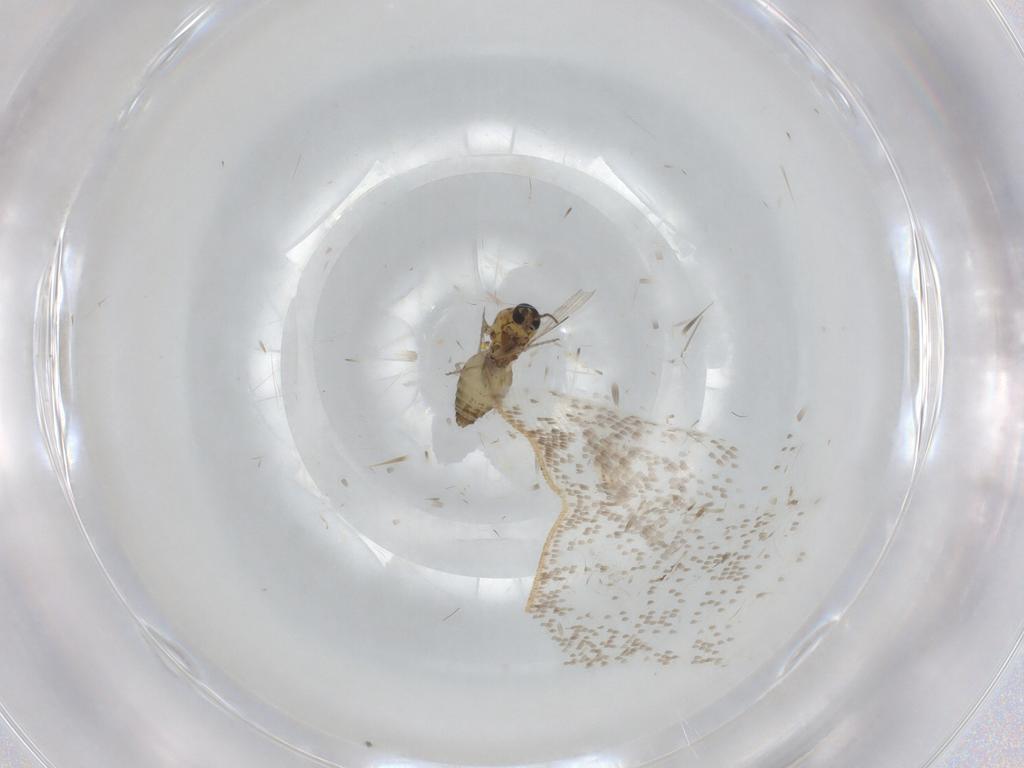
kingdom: Animalia
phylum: Arthropoda
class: Insecta
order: Diptera
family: Ceratopogonidae
